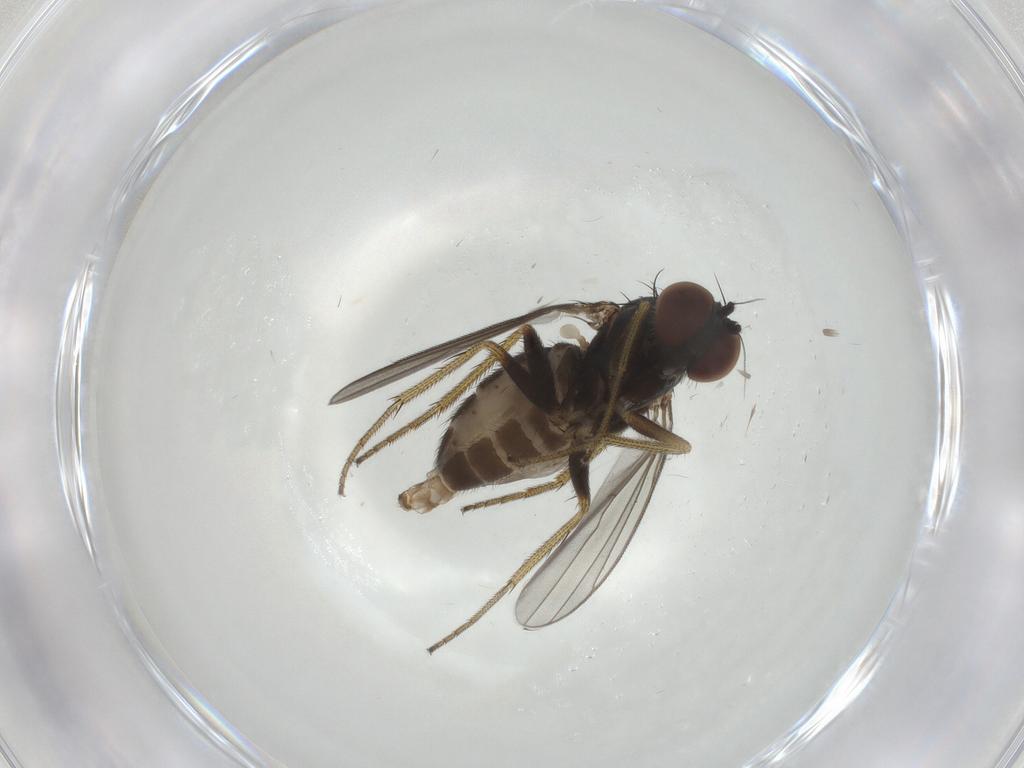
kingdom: Animalia
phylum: Arthropoda
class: Insecta
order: Diptera
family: Dolichopodidae
